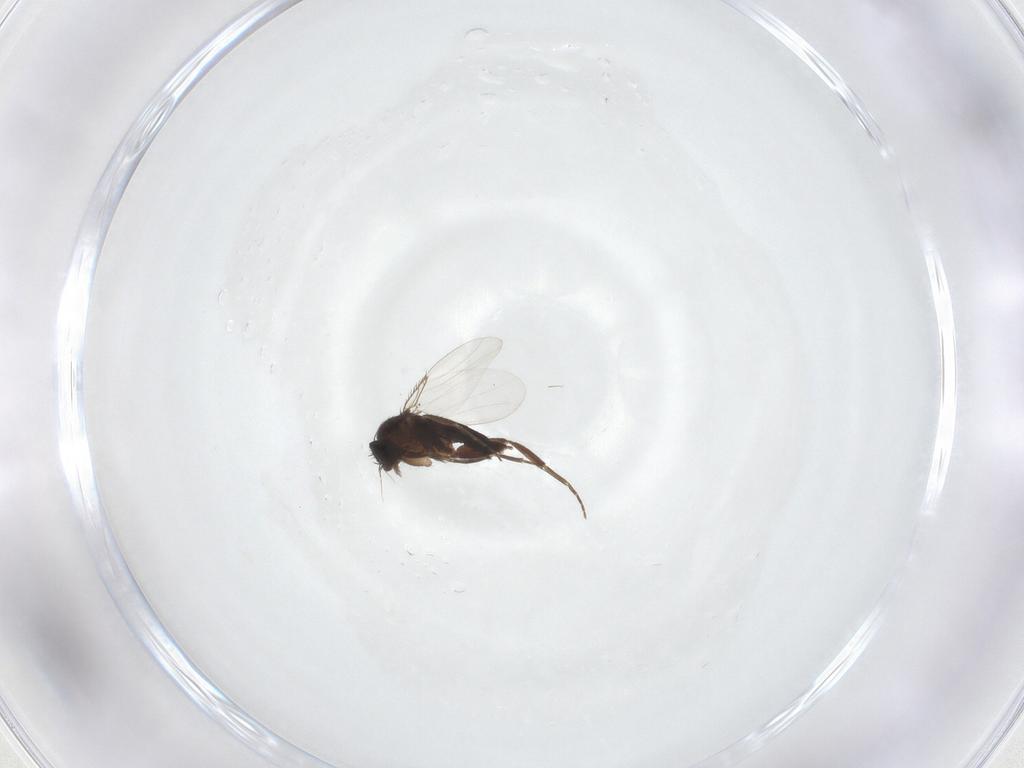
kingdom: Animalia
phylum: Arthropoda
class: Insecta
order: Diptera
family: Phoridae
